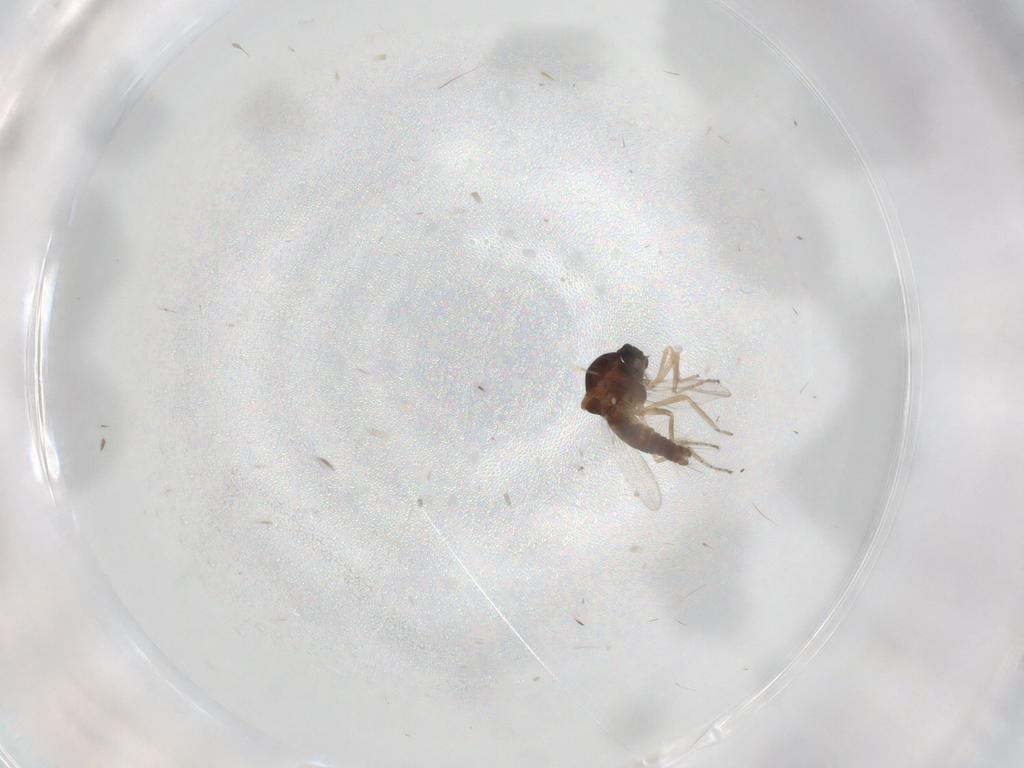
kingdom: Animalia
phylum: Arthropoda
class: Insecta
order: Diptera
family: Ceratopogonidae
